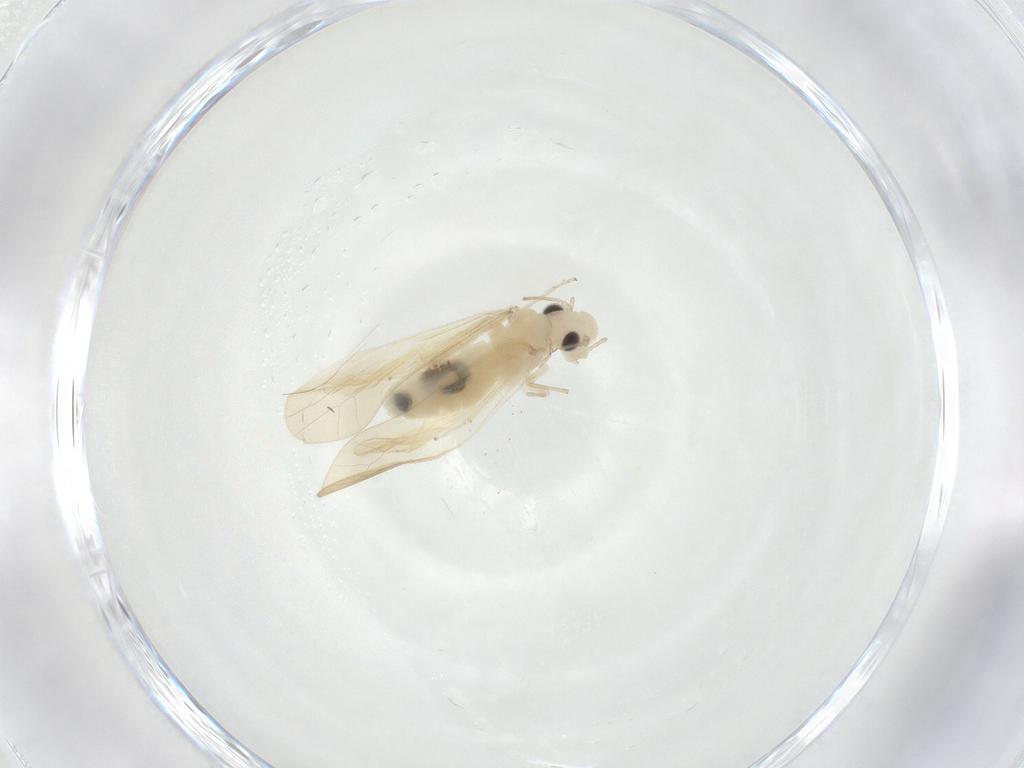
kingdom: Animalia
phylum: Arthropoda
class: Insecta
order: Psocodea
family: Caeciliusidae
